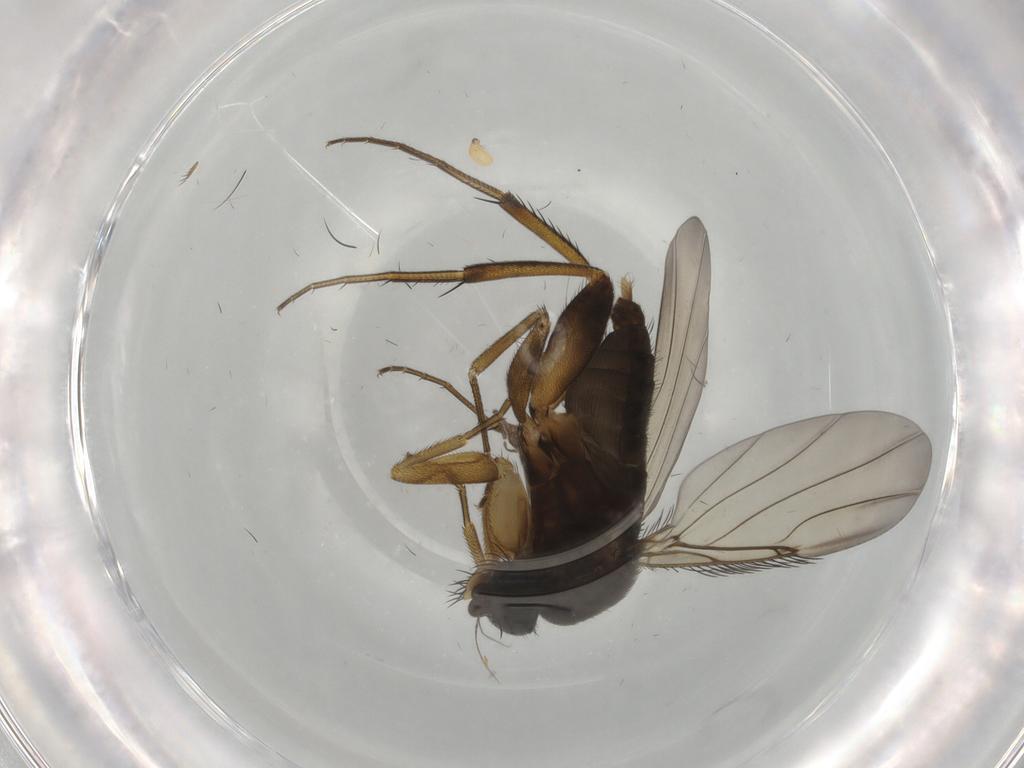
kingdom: Animalia
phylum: Arthropoda
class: Insecta
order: Diptera
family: Phoridae
